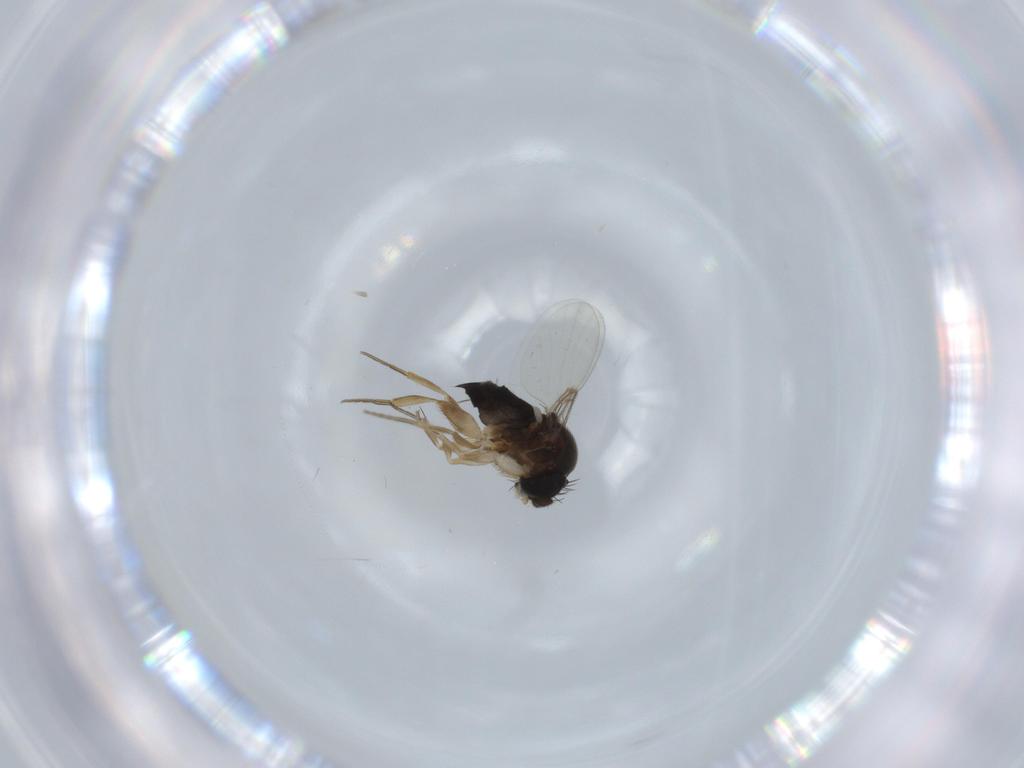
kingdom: Animalia
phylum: Arthropoda
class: Insecta
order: Diptera
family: Phoridae
